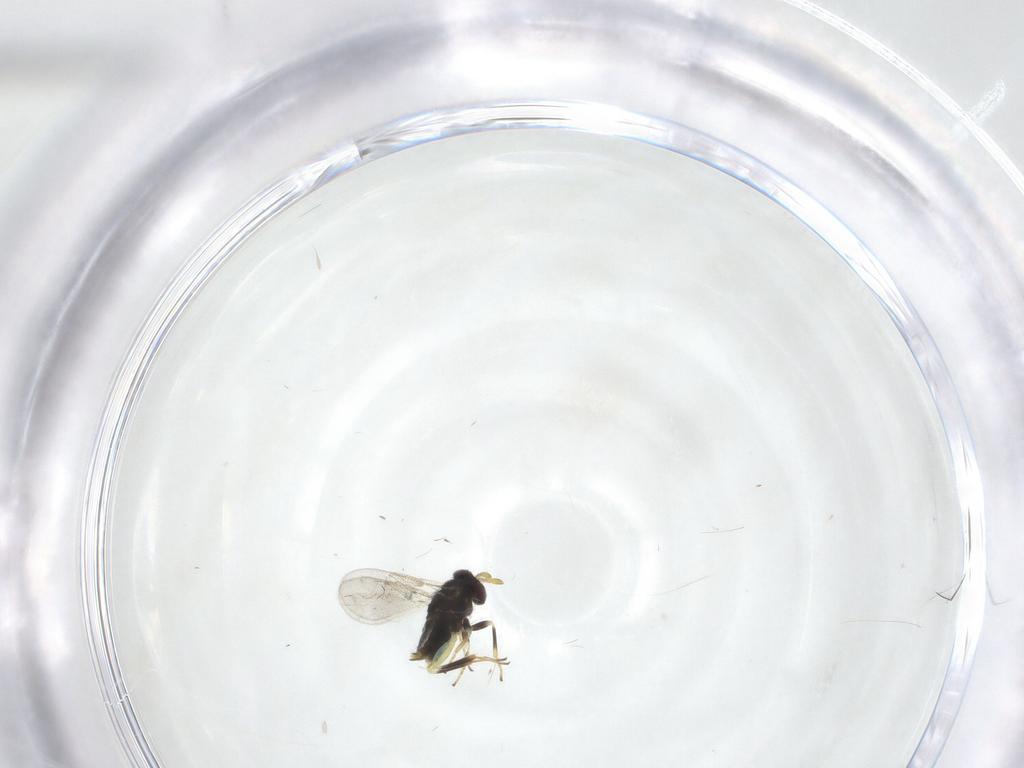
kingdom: Animalia
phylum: Arthropoda
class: Insecta
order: Hymenoptera
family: Aphelinidae
